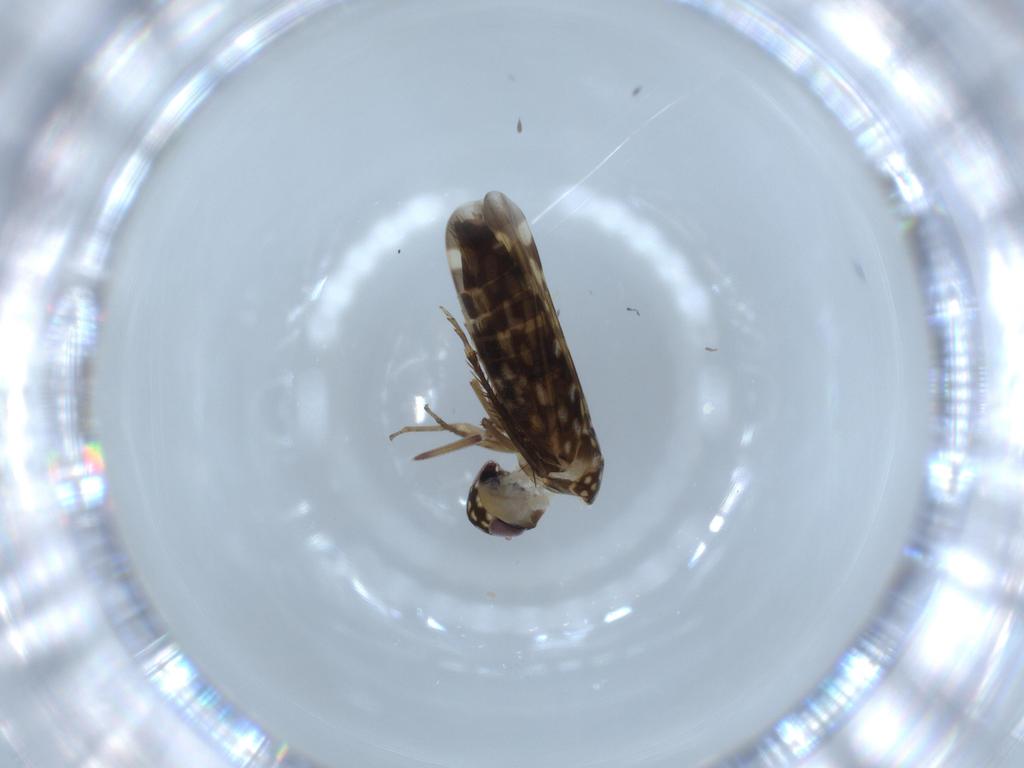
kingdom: Animalia
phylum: Arthropoda
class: Insecta
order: Hemiptera
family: Cicadellidae
